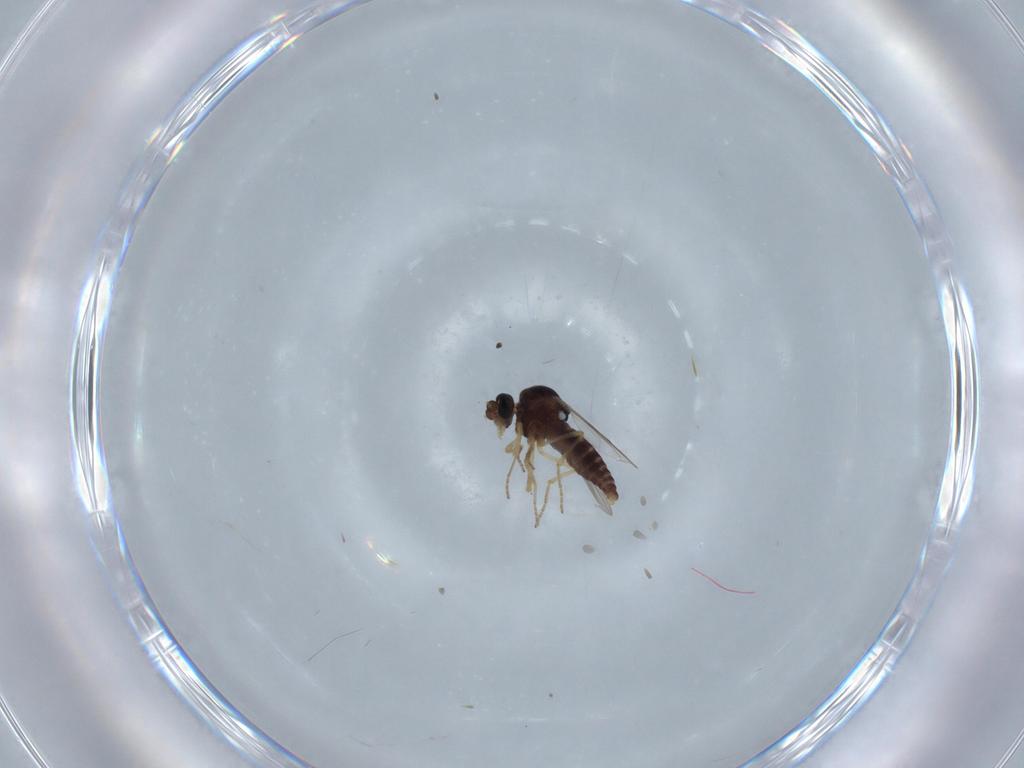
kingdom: Animalia
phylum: Arthropoda
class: Insecta
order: Diptera
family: Ceratopogonidae
